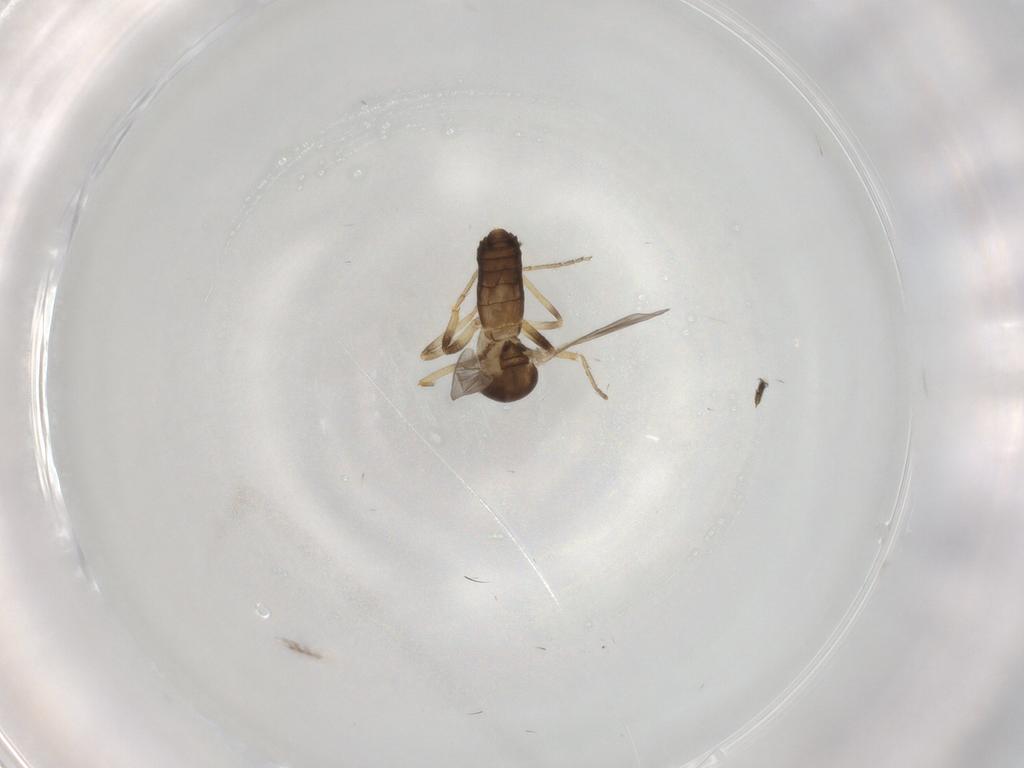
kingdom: Animalia
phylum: Arthropoda
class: Insecta
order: Diptera
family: Ceratopogonidae
